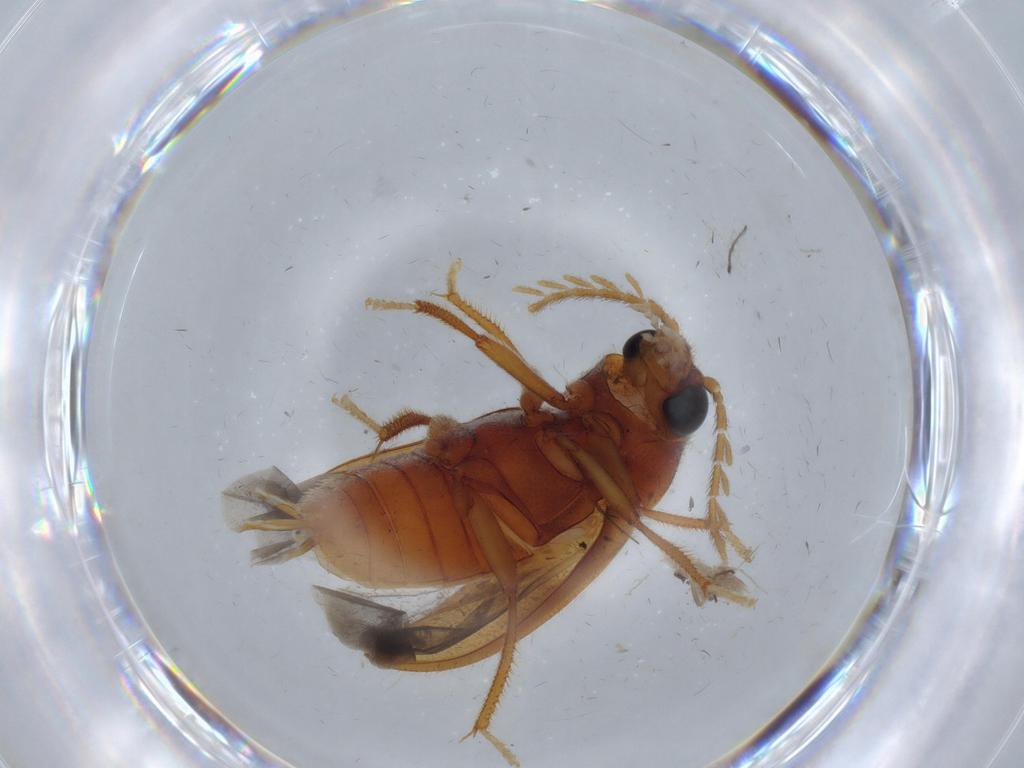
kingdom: Animalia
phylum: Arthropoda
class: Insecta
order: Coleoptera
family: Ptilodactylidae
